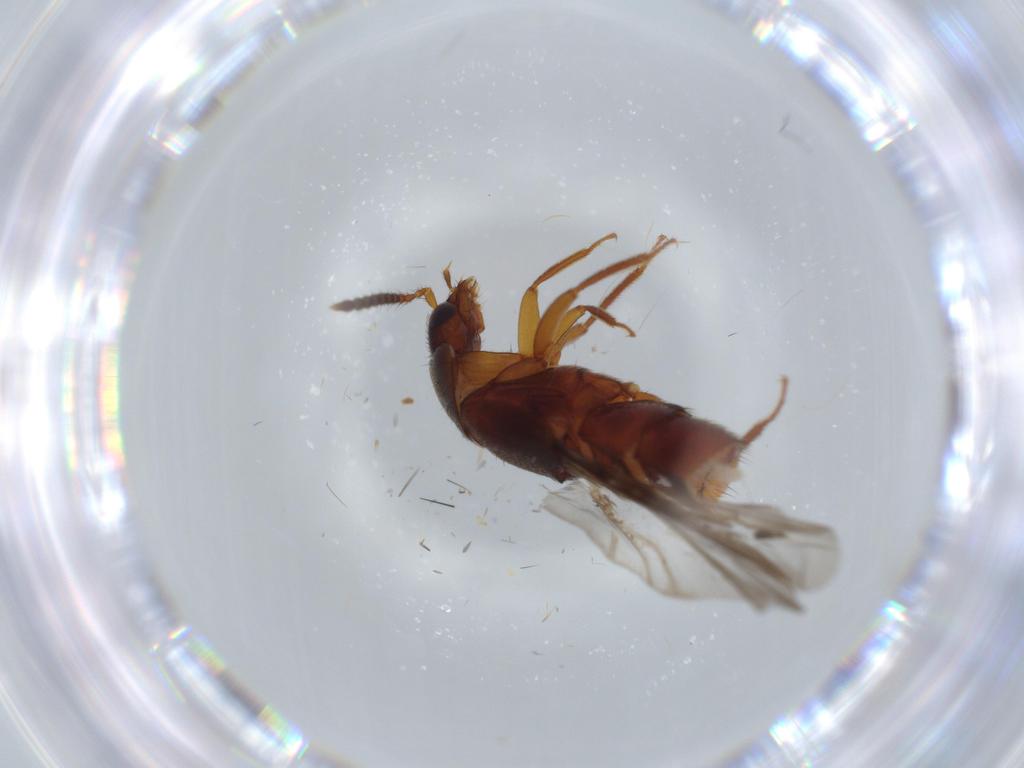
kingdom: Animalia
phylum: Arthropoda
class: Insecta
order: Coleoptera
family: Staphylinidae
